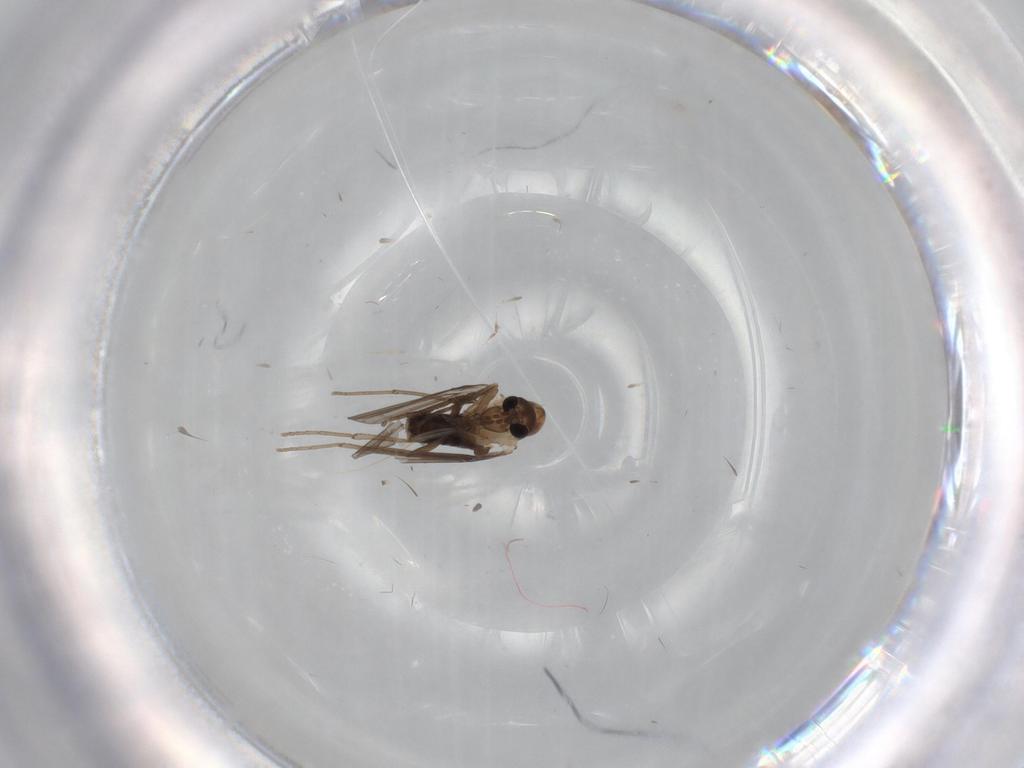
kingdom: Animalia
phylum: Arthropoda
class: Insecta
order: Diptera
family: Psychodidae
